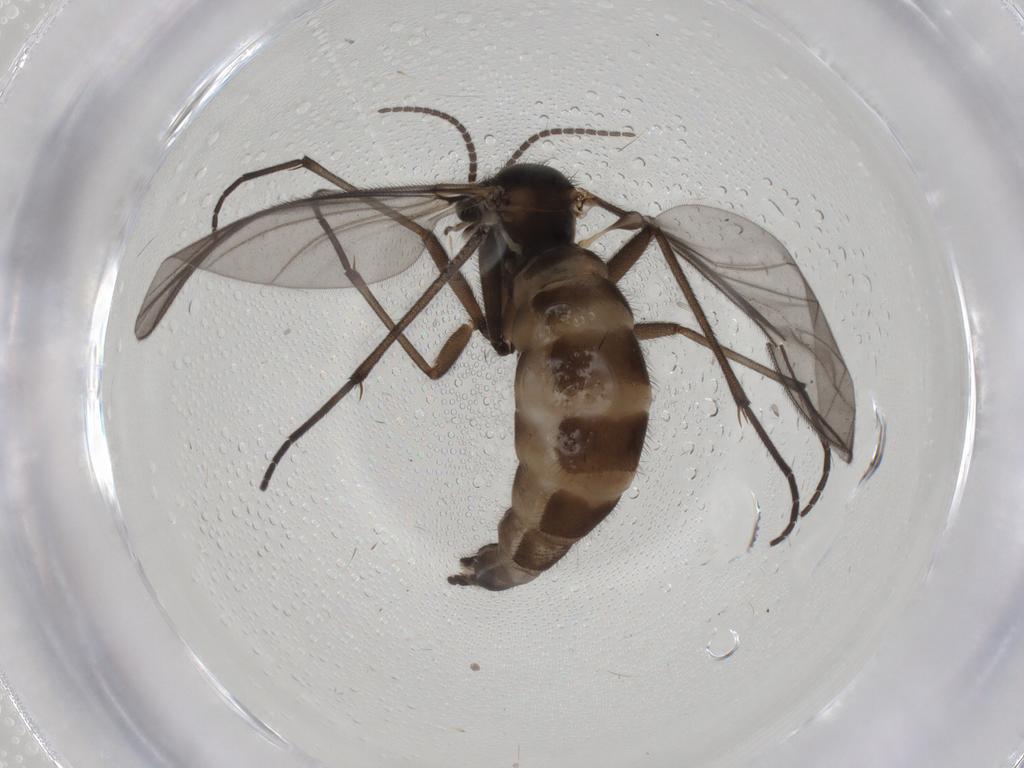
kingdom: Animalia
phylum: Arthropoda
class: Insecta
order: Diptera
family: Sciaridae
